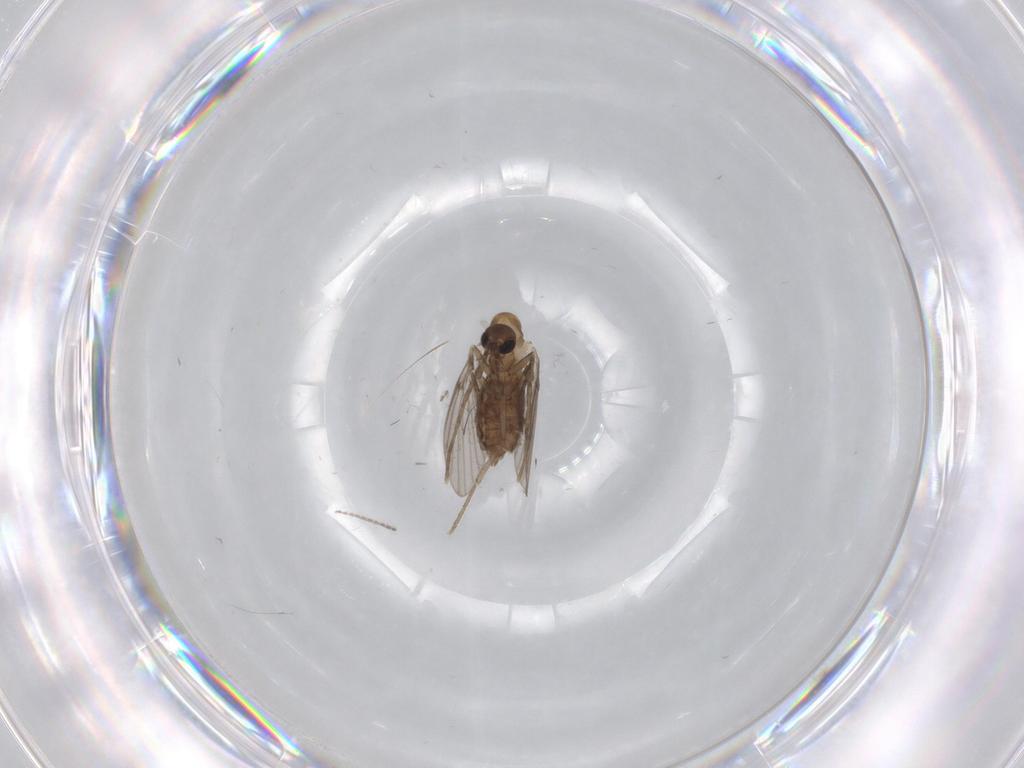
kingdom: Animalia
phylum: Arthropoda
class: Insecta
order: Diptera
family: Psychodidae
